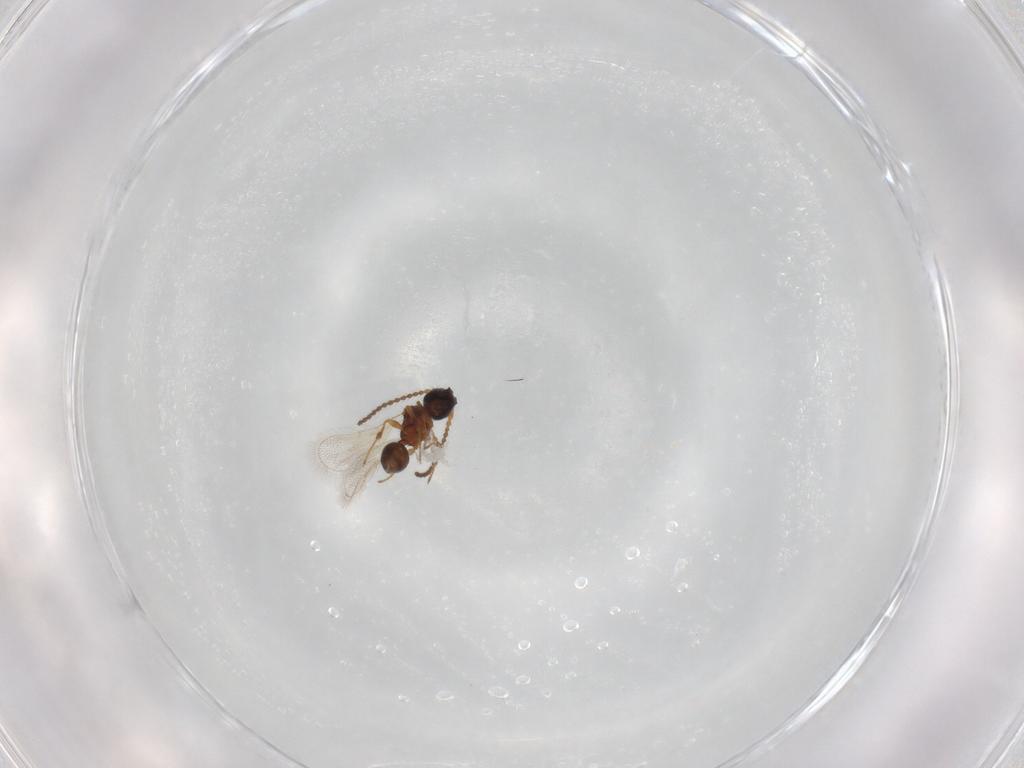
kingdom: Animalia
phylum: Arthropoda
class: Insecta
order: Hymenoptera
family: Diapriidae
